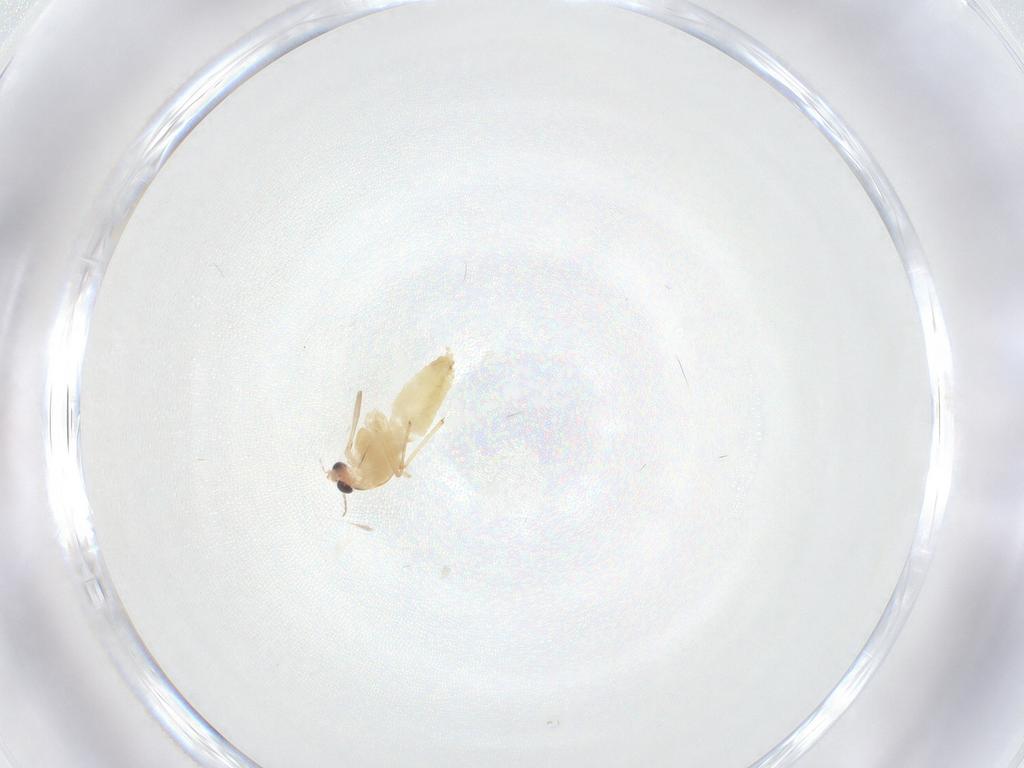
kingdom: Animalia
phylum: Arthropoda
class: Insecta
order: Diptera
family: Chironomidae
